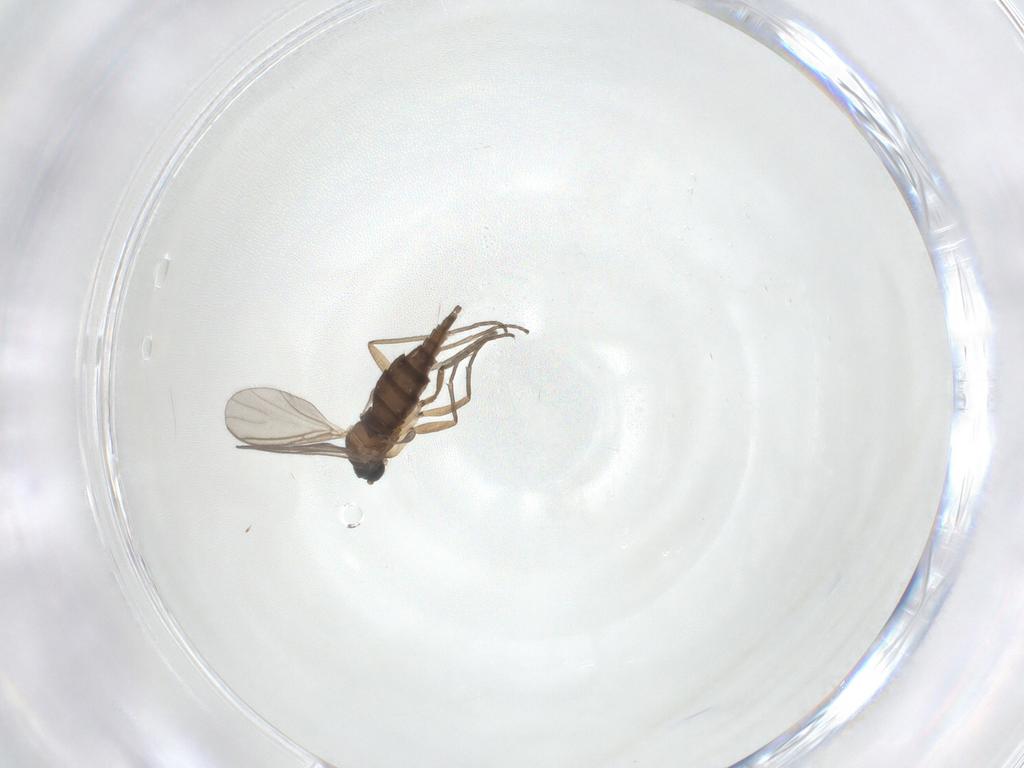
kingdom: Animalia
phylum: Arthropoda
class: Insecta
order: Diptera
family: Sciaridae
